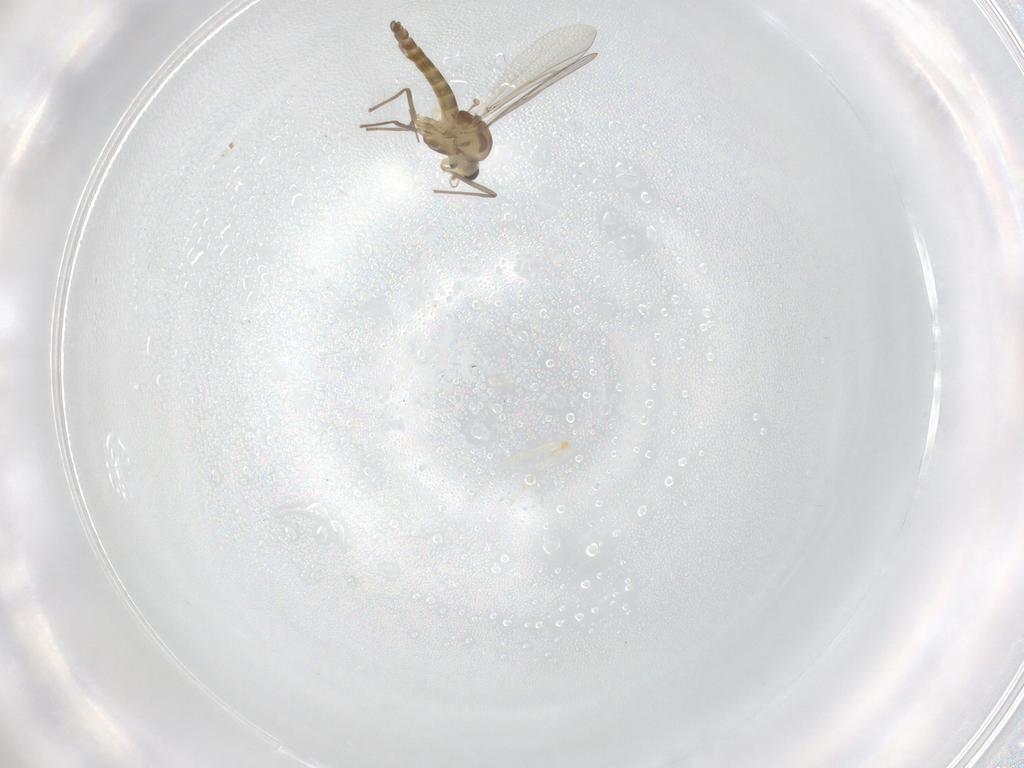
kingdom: Animalia
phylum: Arthropoda
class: Insecta
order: Diptera
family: Chironomidae
